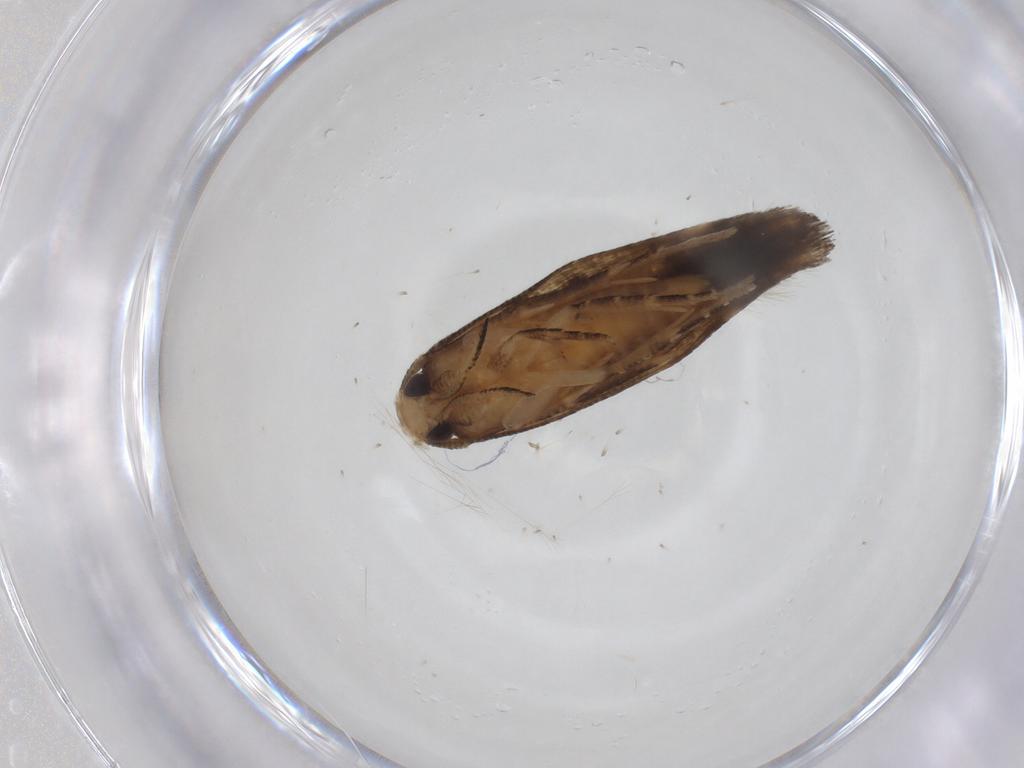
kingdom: Animalia
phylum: Arthropoda
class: Insecta
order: Lepidoptera
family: Gelechiidae
